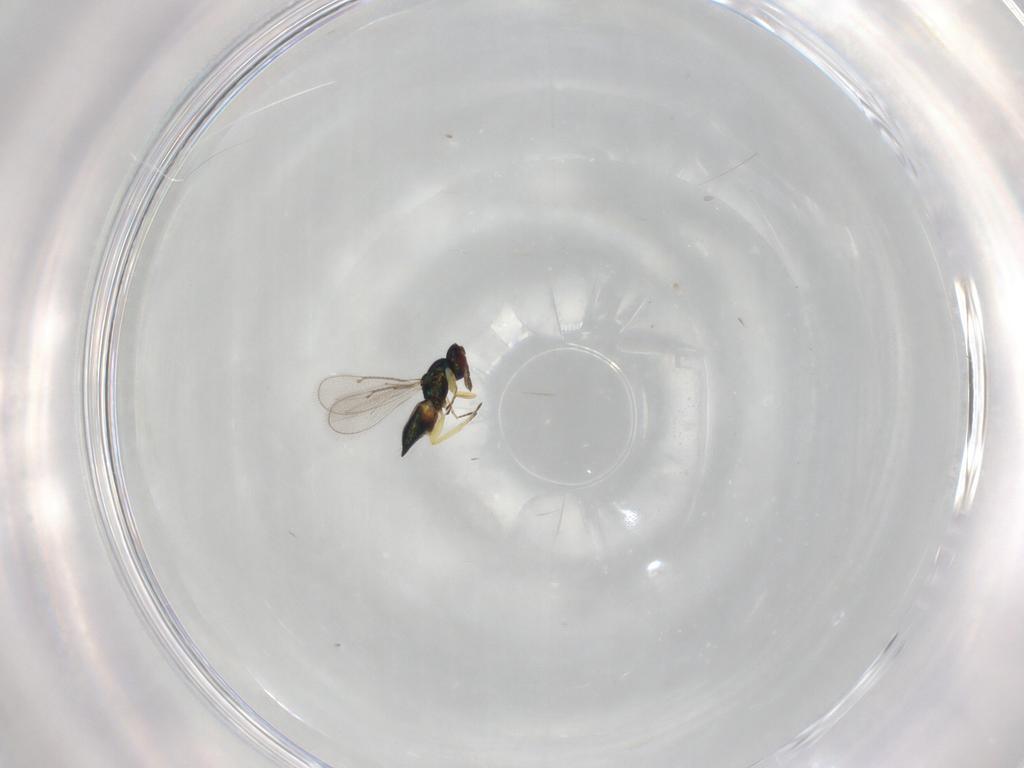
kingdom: Animalia
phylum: Arthropoda
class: Insecta
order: Hymenoptera
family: Eulophidae
